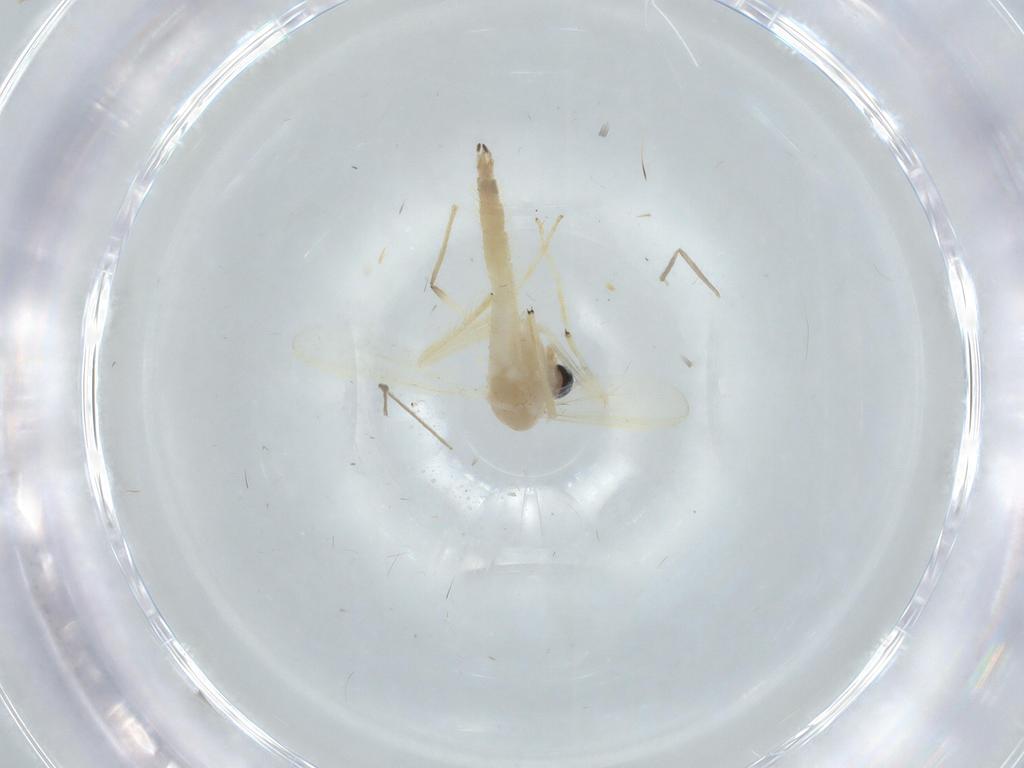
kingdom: Animalia
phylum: Arthropoda
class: Insecta
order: Diptera
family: Chironomidae
